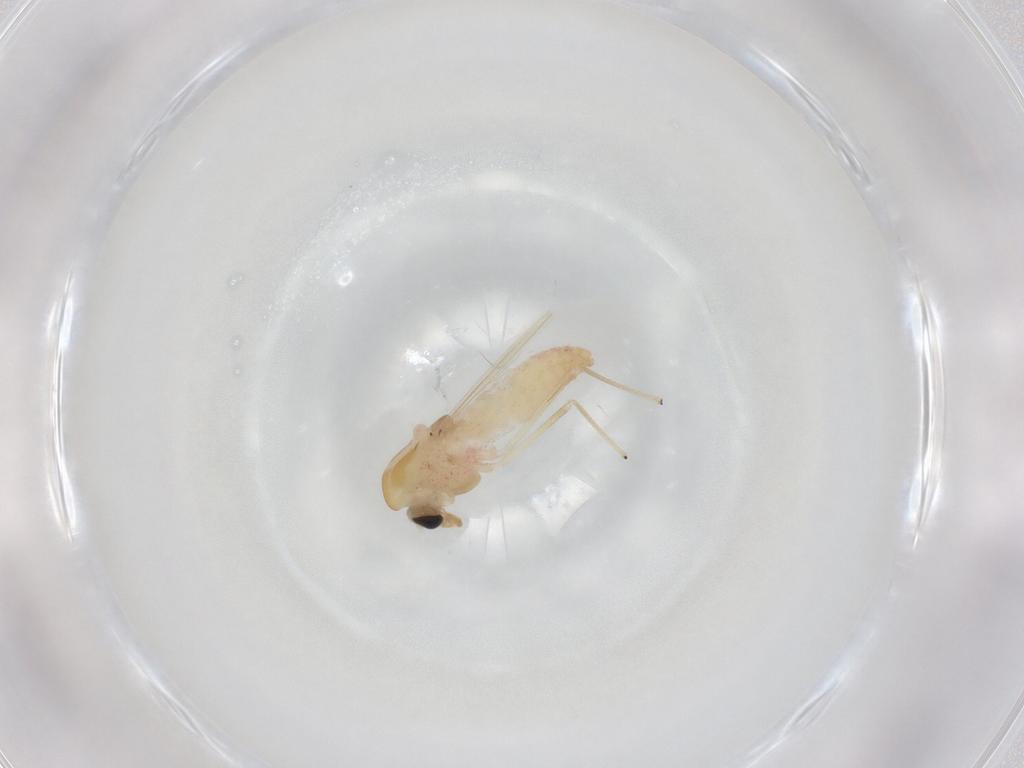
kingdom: Animalia
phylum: Arthropoda
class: Insecta
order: Diptera
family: Chironomidae
